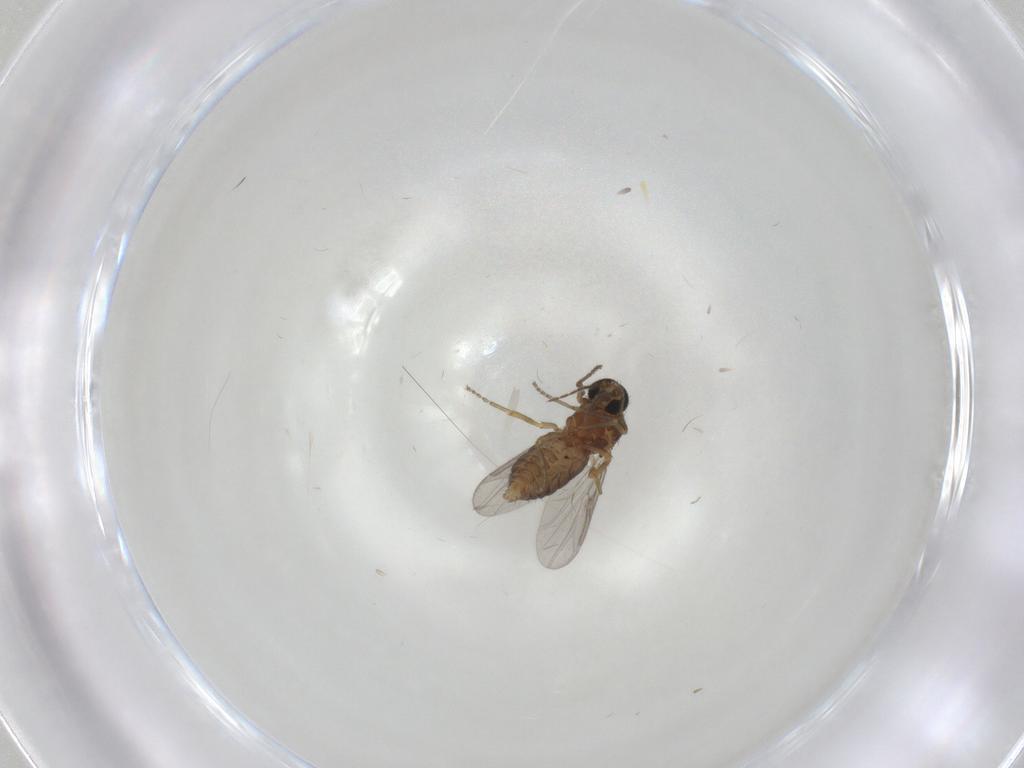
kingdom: Animalia
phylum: Arthropoda
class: Insecta
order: Diptera
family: Ceratopogonidae
